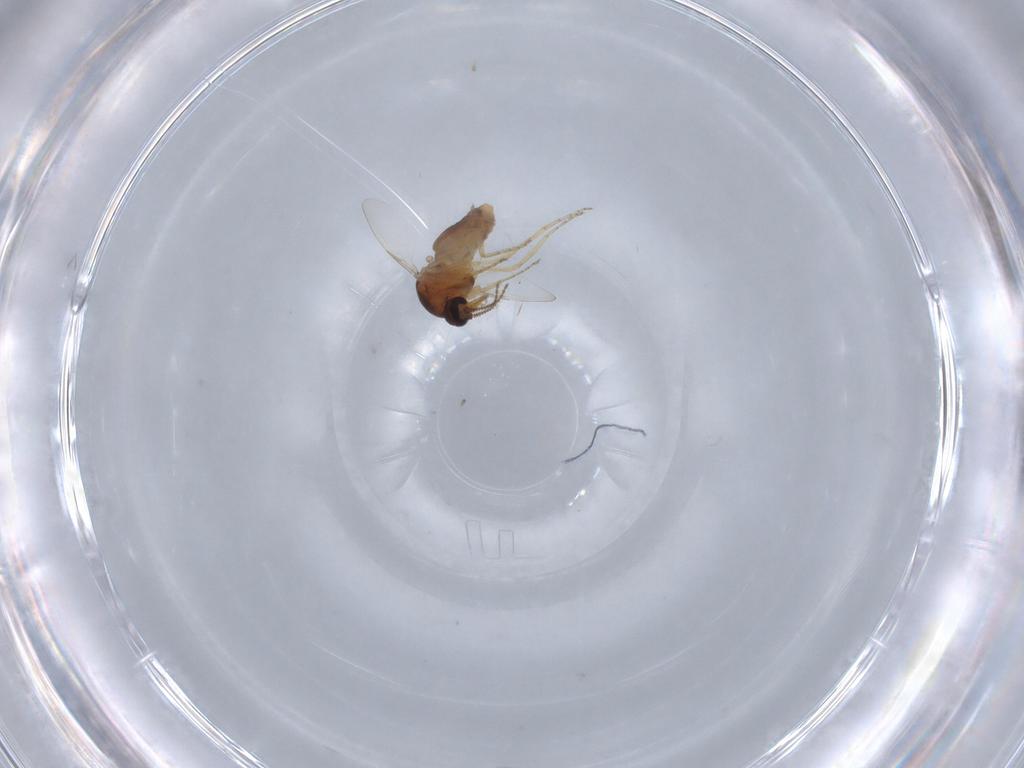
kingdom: Animalia
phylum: Arthropoda
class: Insecta
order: Diptera
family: Ceratopogonidae
